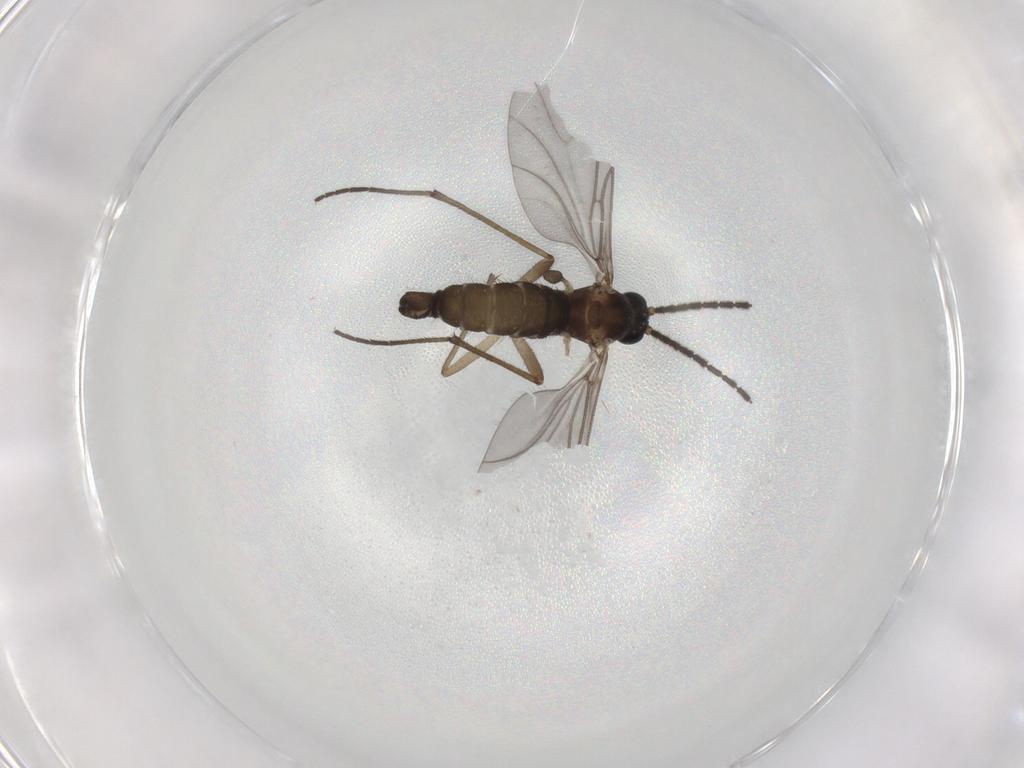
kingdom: Animalia
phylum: Arthropoda
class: Insecta
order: Diptera
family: Sciaridae
